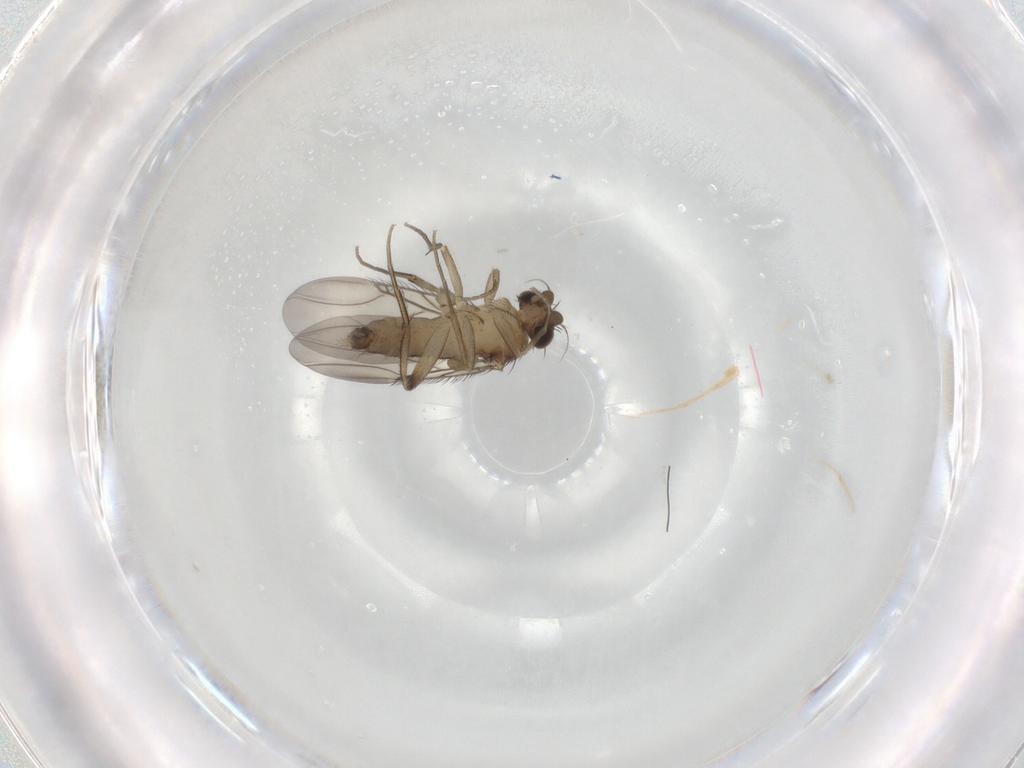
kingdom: Animalia
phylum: Arthropoda
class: Insecta
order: Diptera
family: Phoridae
